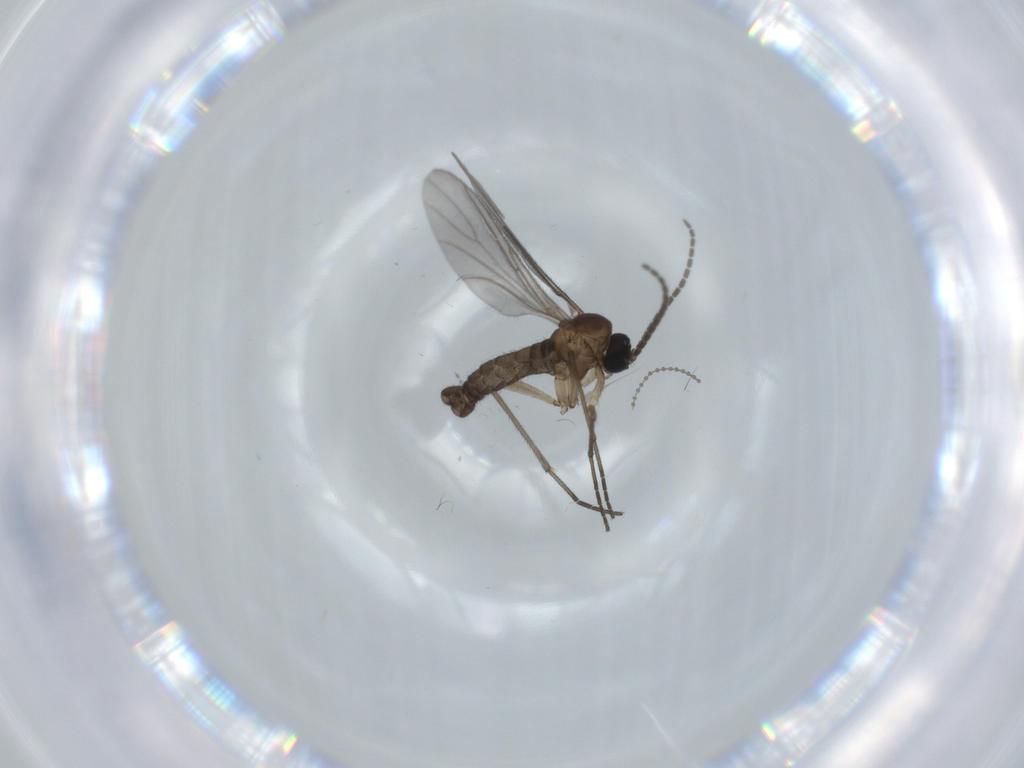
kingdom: Animalia
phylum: Arthropoda
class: Insecta
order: Diptera
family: Sciaridae
